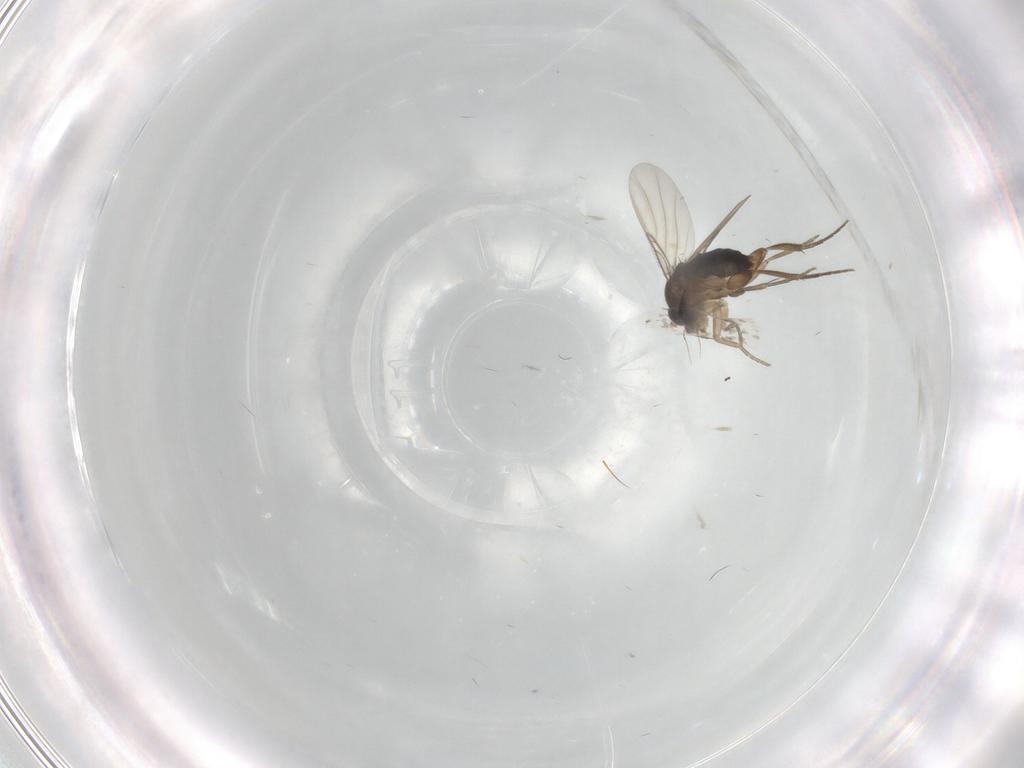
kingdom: Animalia
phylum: Arthropoda
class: Insecta
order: Diptera
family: Phoridae
